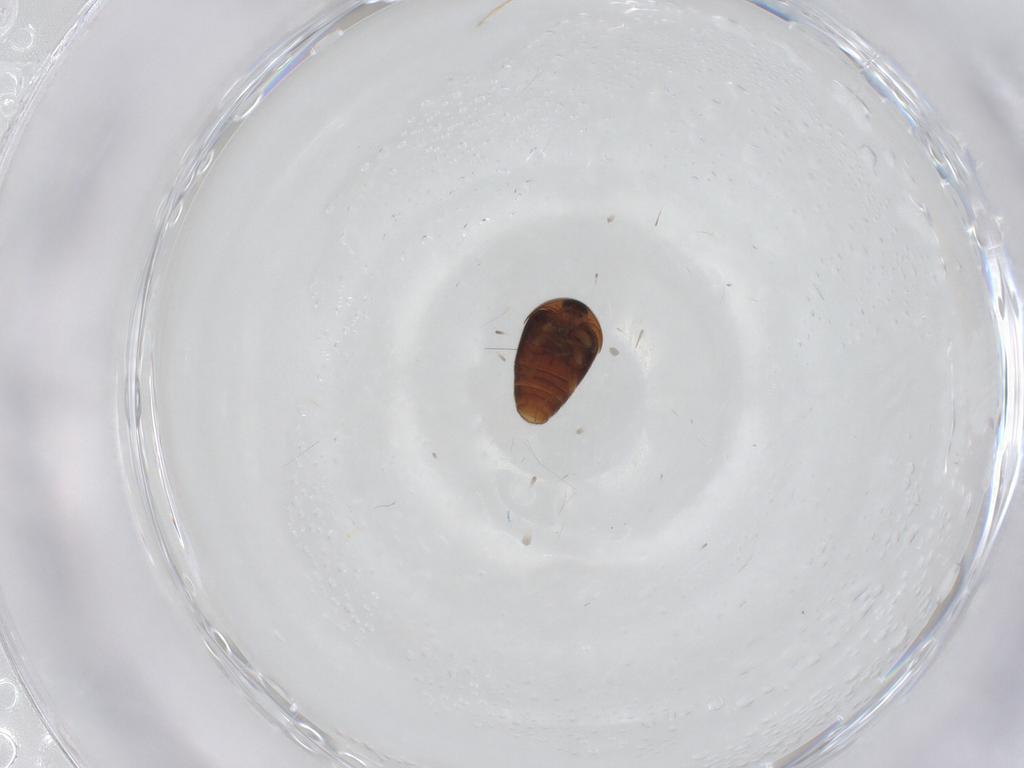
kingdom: Animalia
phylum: Arthropoda
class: Insecta
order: Coleoptera
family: Corylophidae
